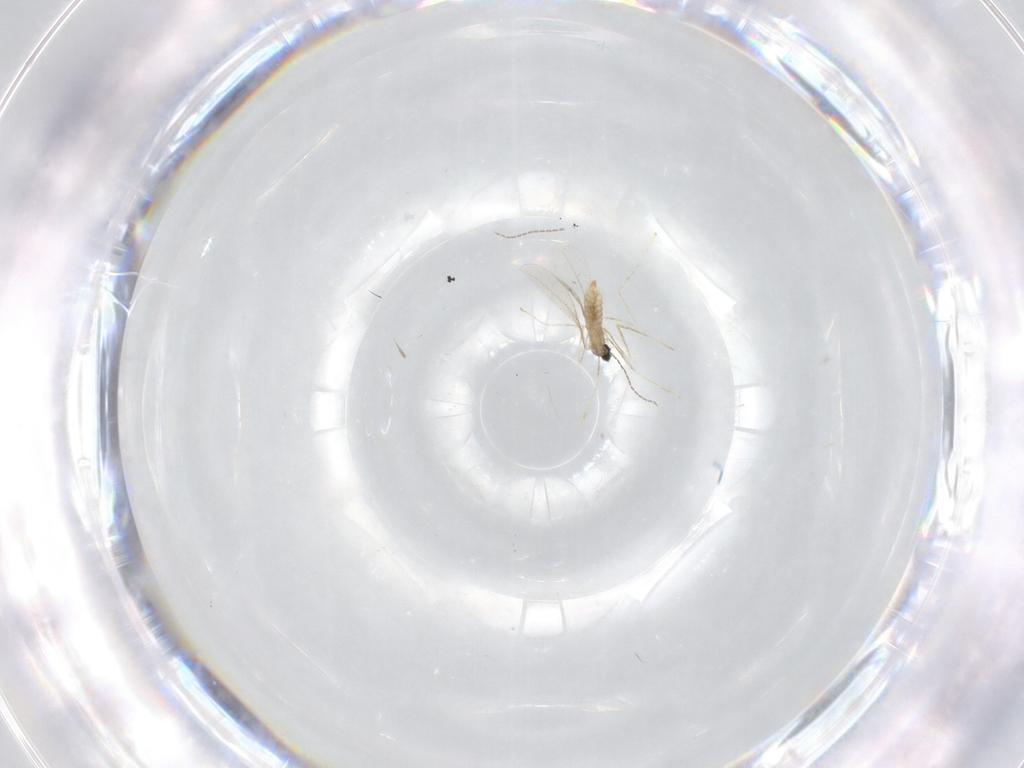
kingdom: Animalia
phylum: Arthropoda
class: Insecta
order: Diptera
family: Cecidomyiidae
